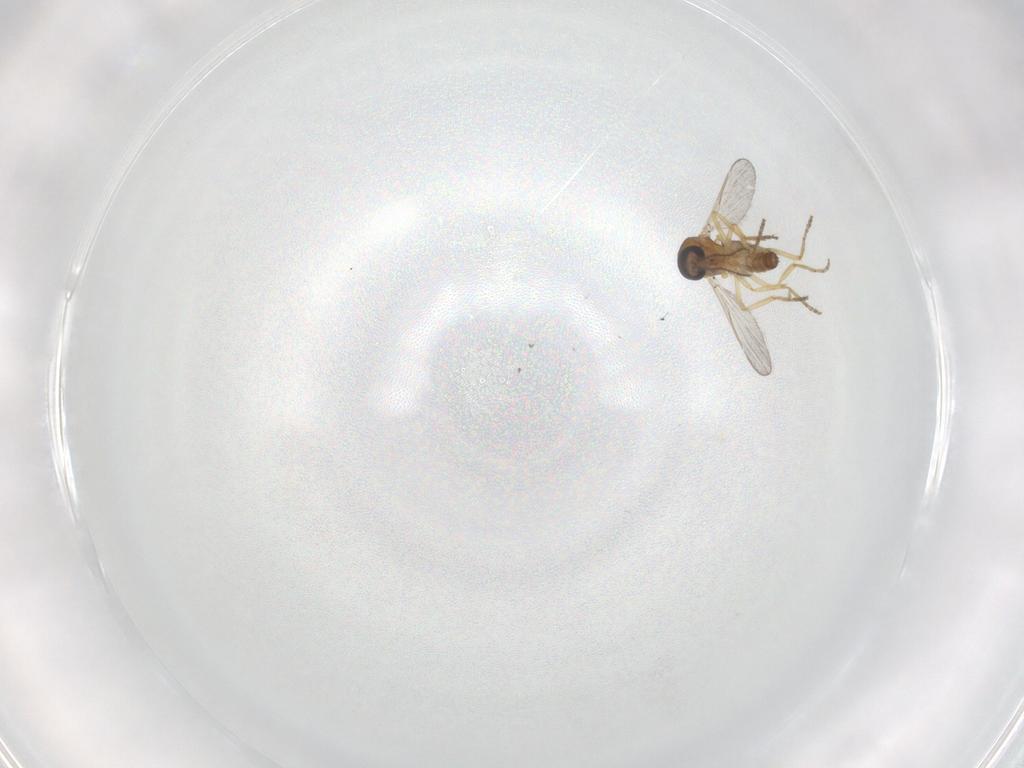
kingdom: Animalia
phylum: Arthropoda
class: Insecta
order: Diptera
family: Ceratopogonidae
